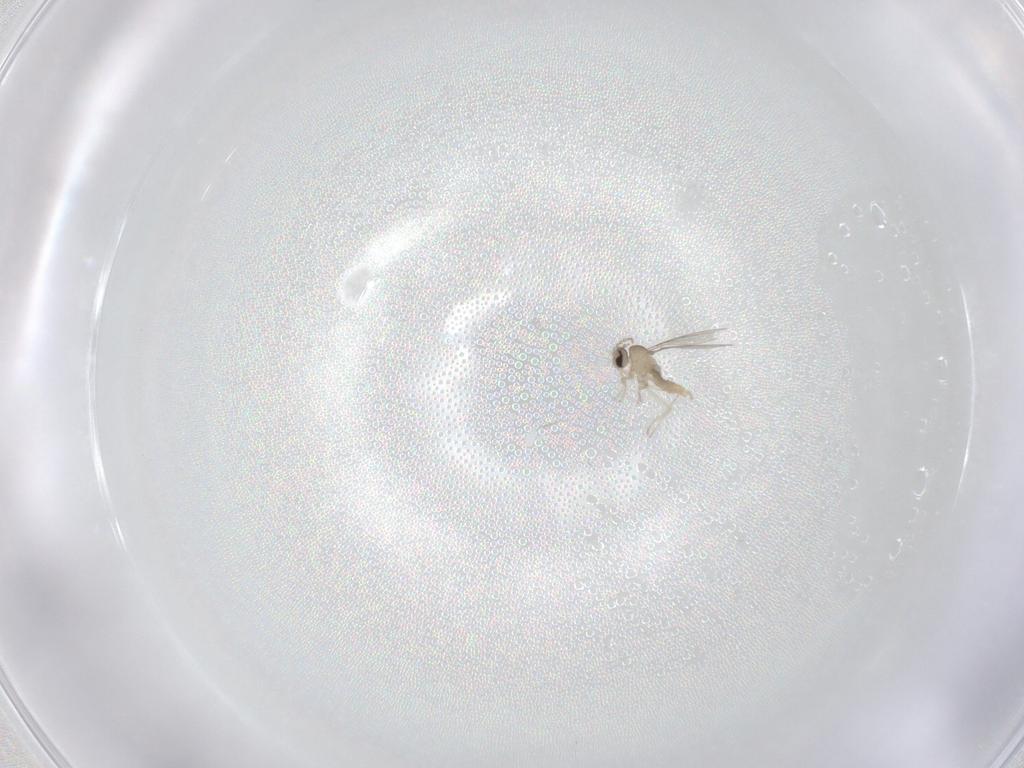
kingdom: Animalia
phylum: Arthropoda
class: Insecta
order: Diptera
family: Cecidomyiidae
